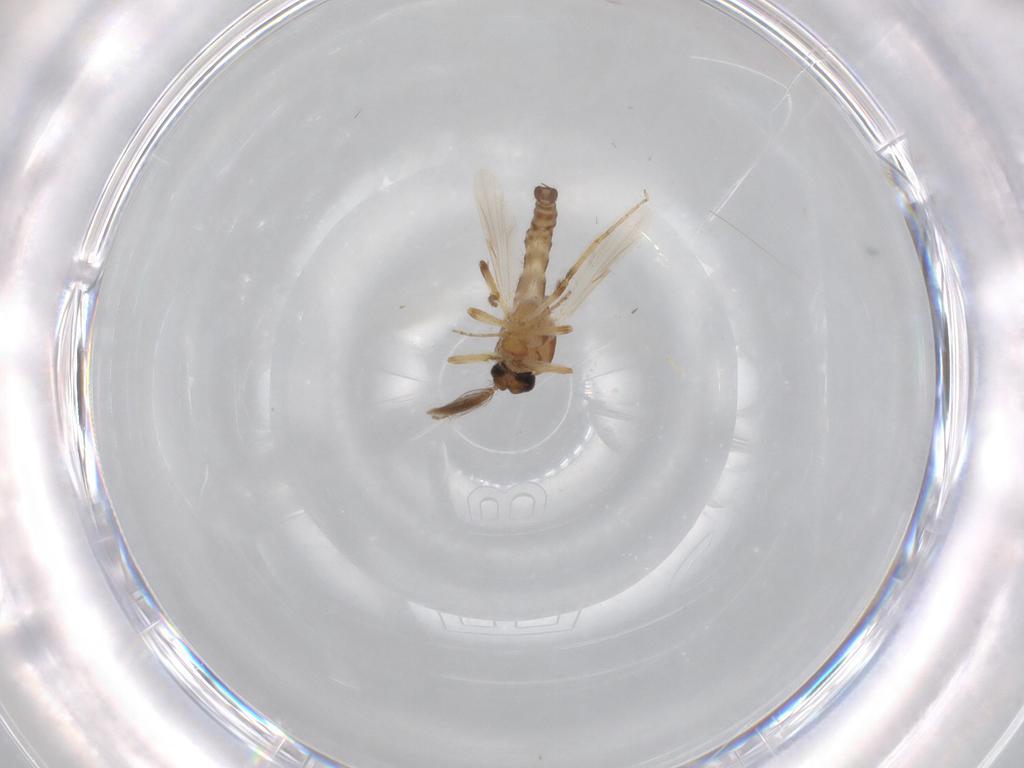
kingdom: Animalia
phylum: Arthropoda
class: Insecta
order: Diptera
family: Ceratopogonidae
